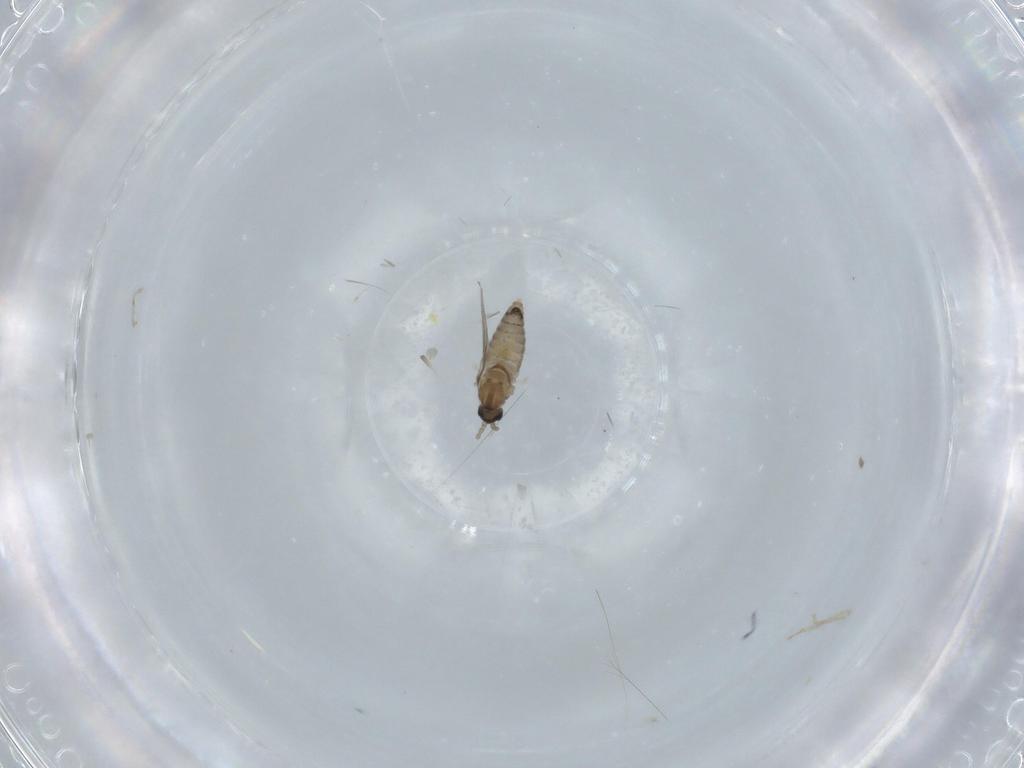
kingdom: Animalia
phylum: Arthropoda
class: Insecta
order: Diptera
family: Cecidomyiidae
